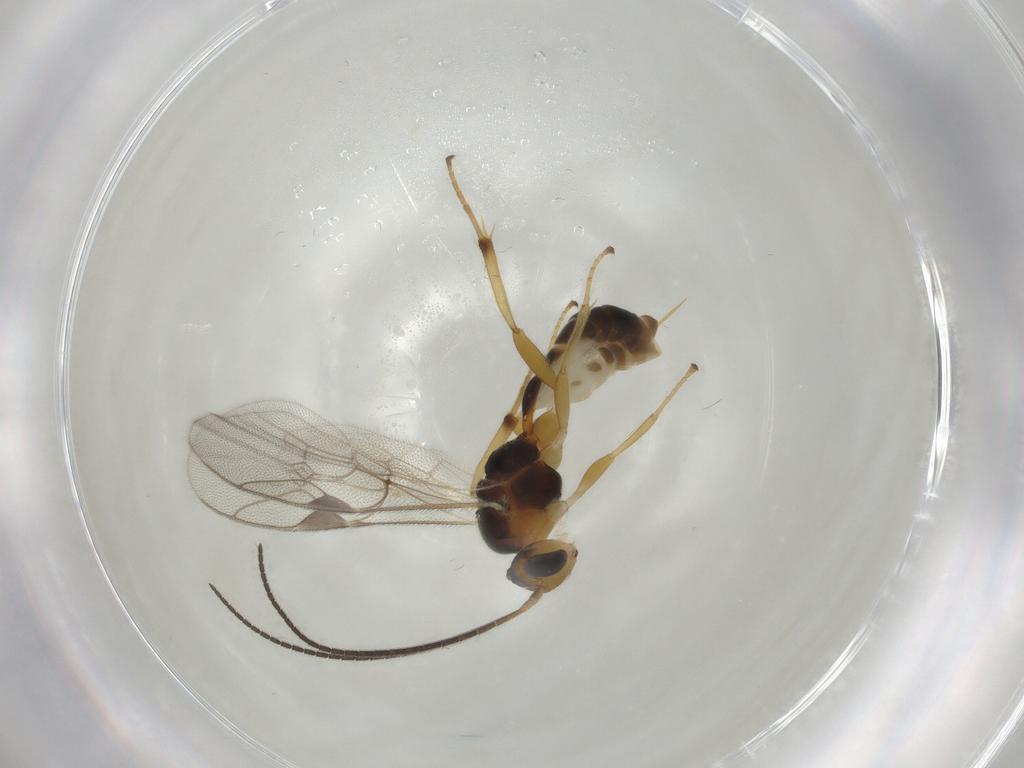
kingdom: Animalia
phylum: Arthropoda
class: Insecta
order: Hymenoptera
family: Ichneumonidae
